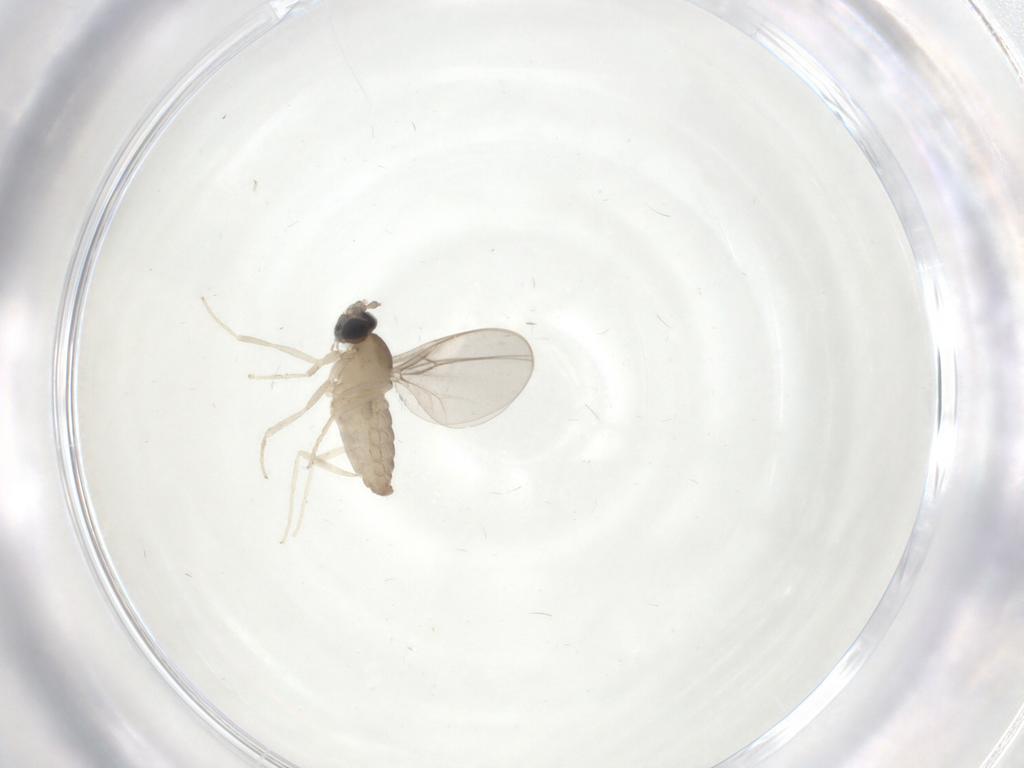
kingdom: Animalia
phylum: Arthropoda
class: Insecta
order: Diptera
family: Cecidomyiidae
